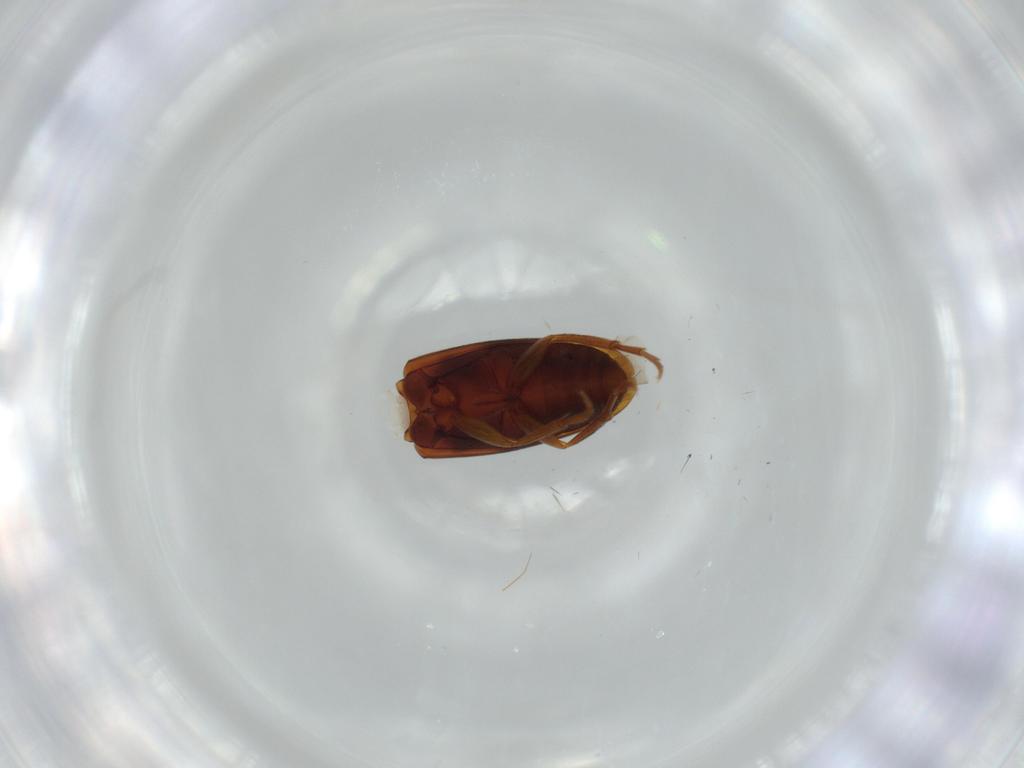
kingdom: Animalia
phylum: Arthropoda
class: Insecta
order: Coleoptera
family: Scraptiidae
